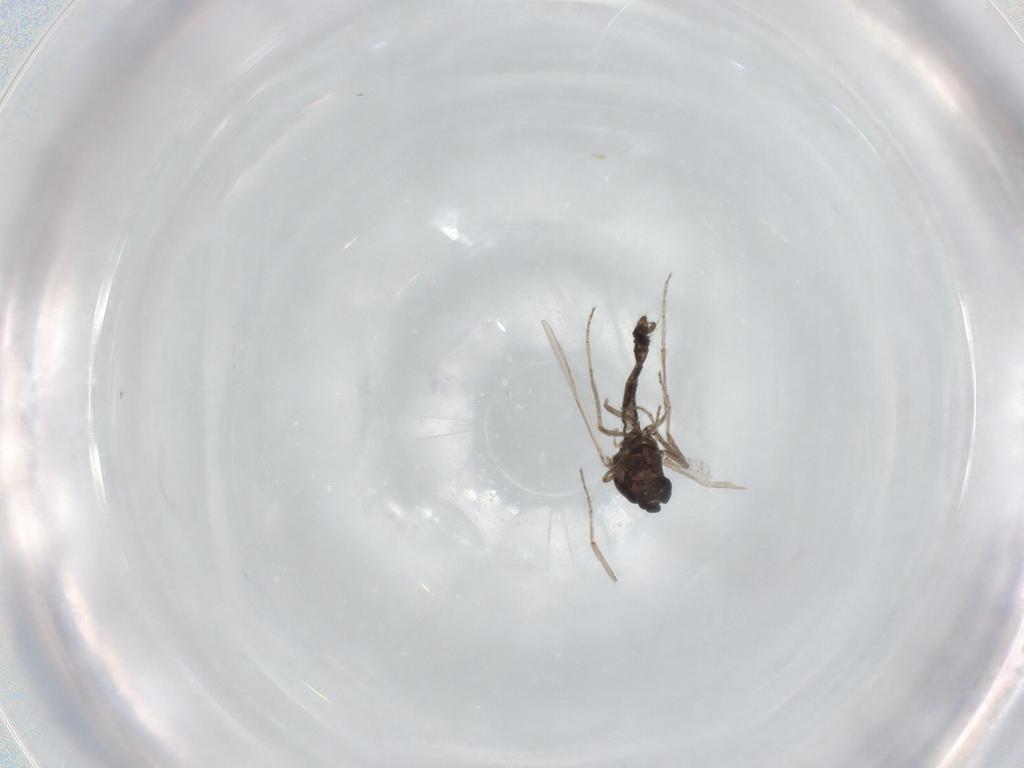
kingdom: Animalia
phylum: Arthropoda
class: Insecta
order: Diptera
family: Ceratopogonidae
